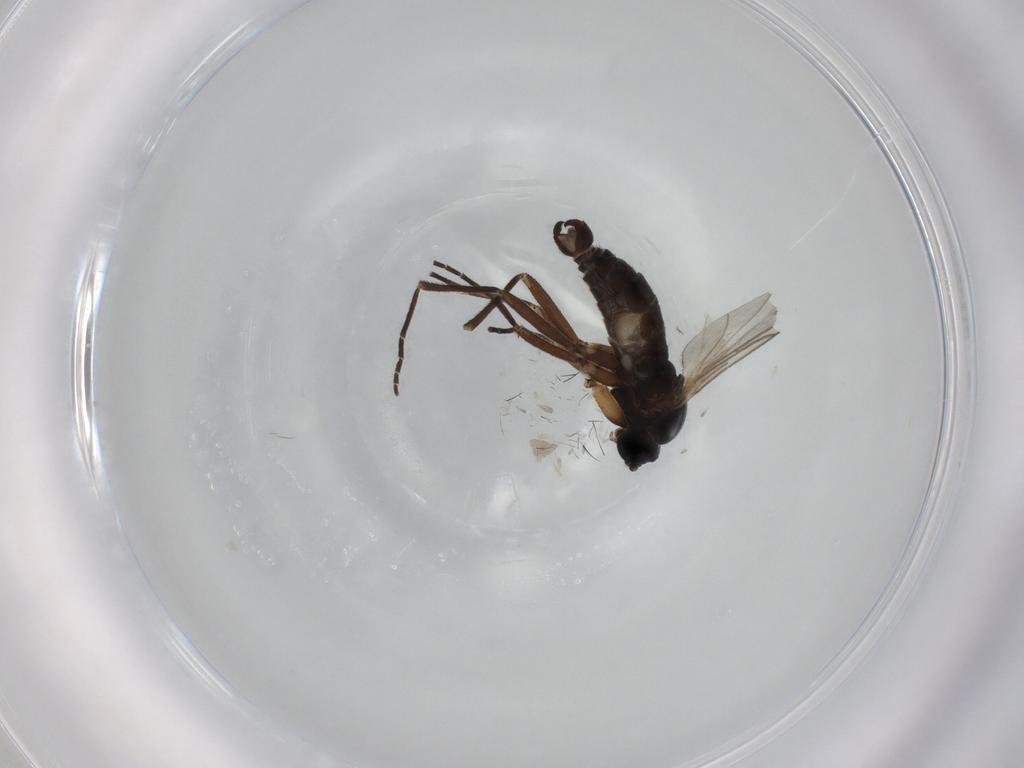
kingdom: Animalia
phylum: Arthropoda
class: Insecta
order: Diptera
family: Sciaridae
